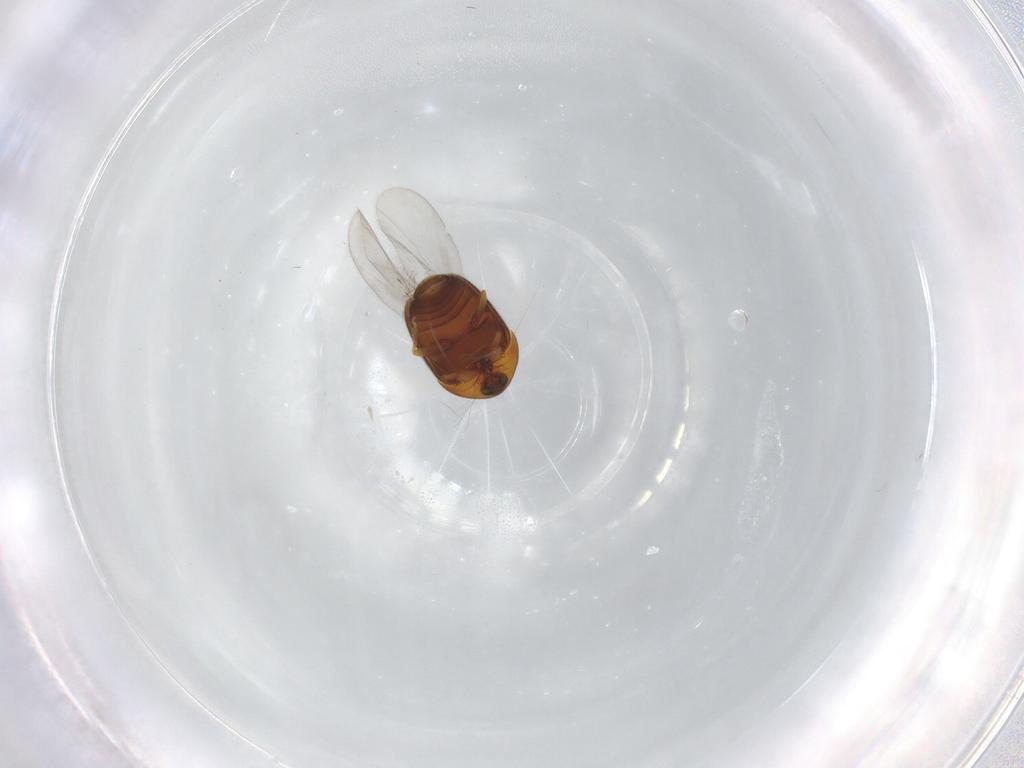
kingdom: Animalia
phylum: Arthropoda
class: Insecta
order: Coleoptera
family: Corylophidae
